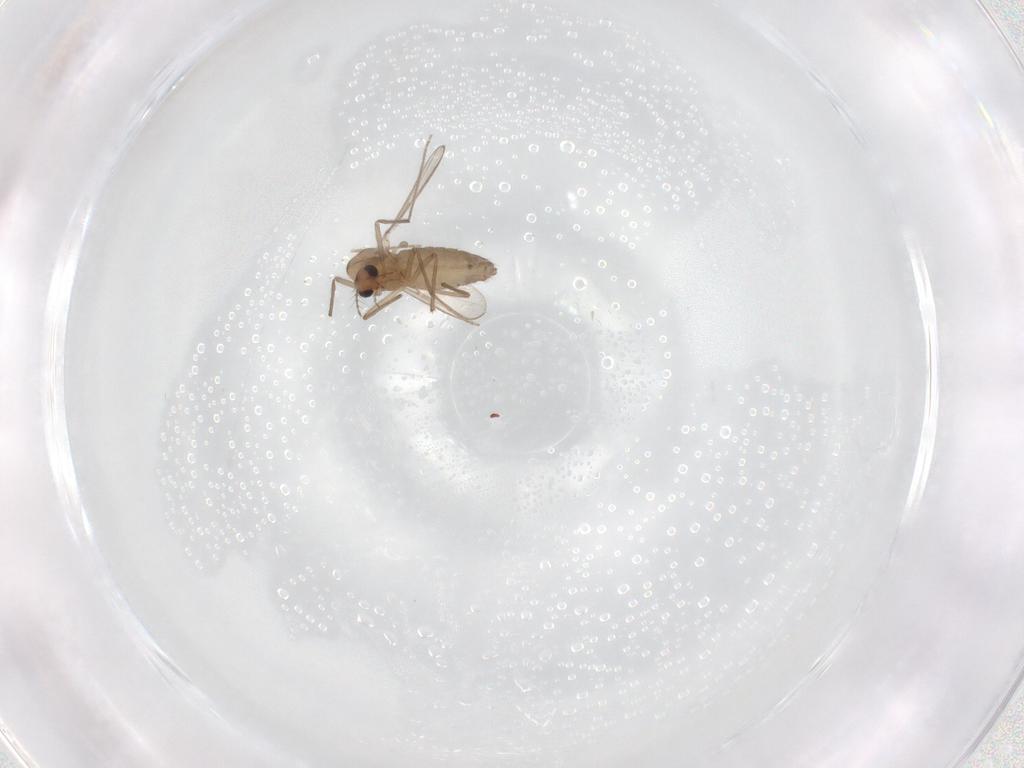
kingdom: Animalia
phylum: Arthropoda
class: Insecta
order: Diptera
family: Chironomidae
